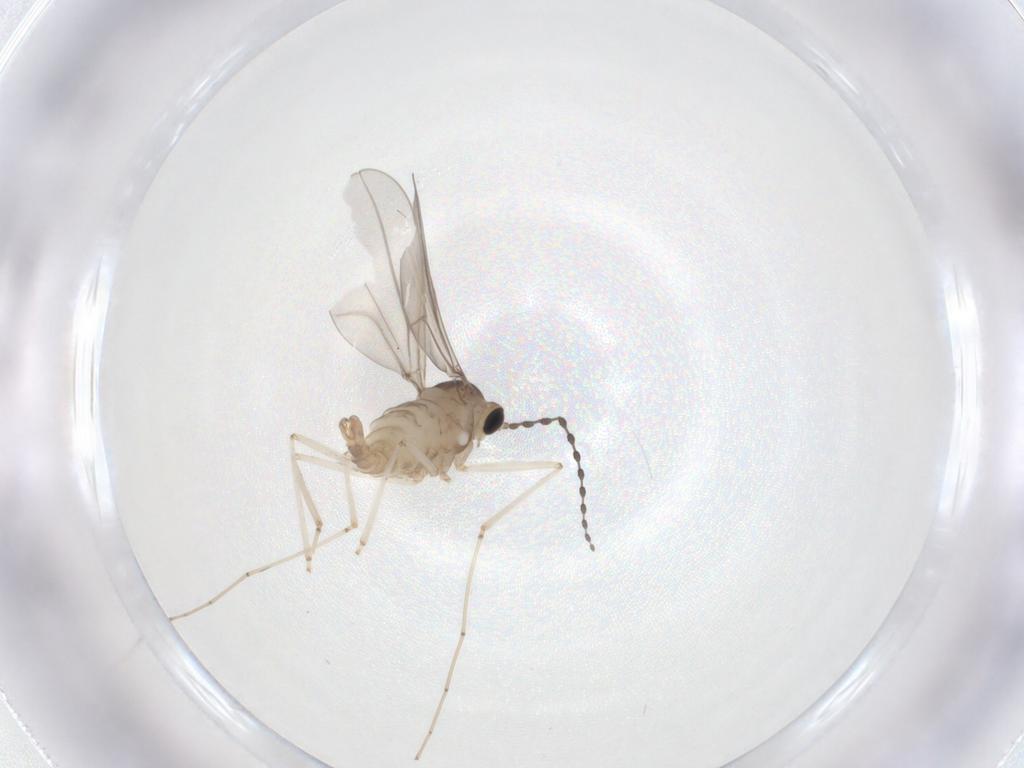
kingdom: Animalia
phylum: Arthropoda
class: Insecta
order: Diptera
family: Cecidomyiidae
